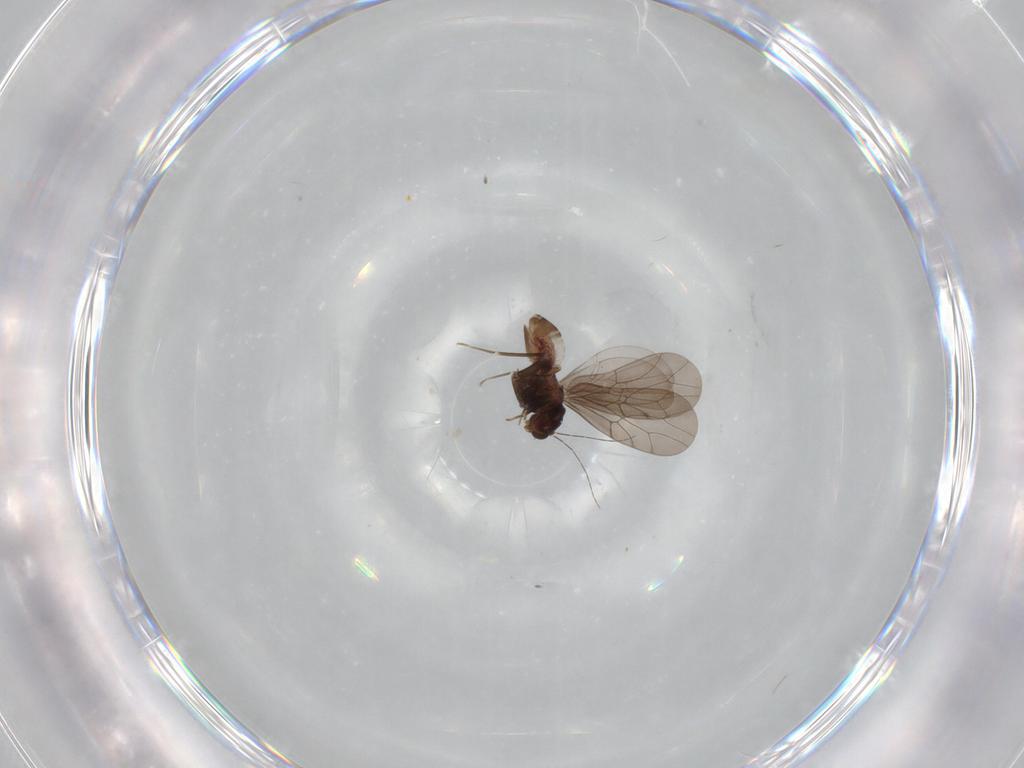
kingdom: Animalia
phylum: Arthropoda
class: Insecta
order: Psocodea
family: Lepidopsocidae
